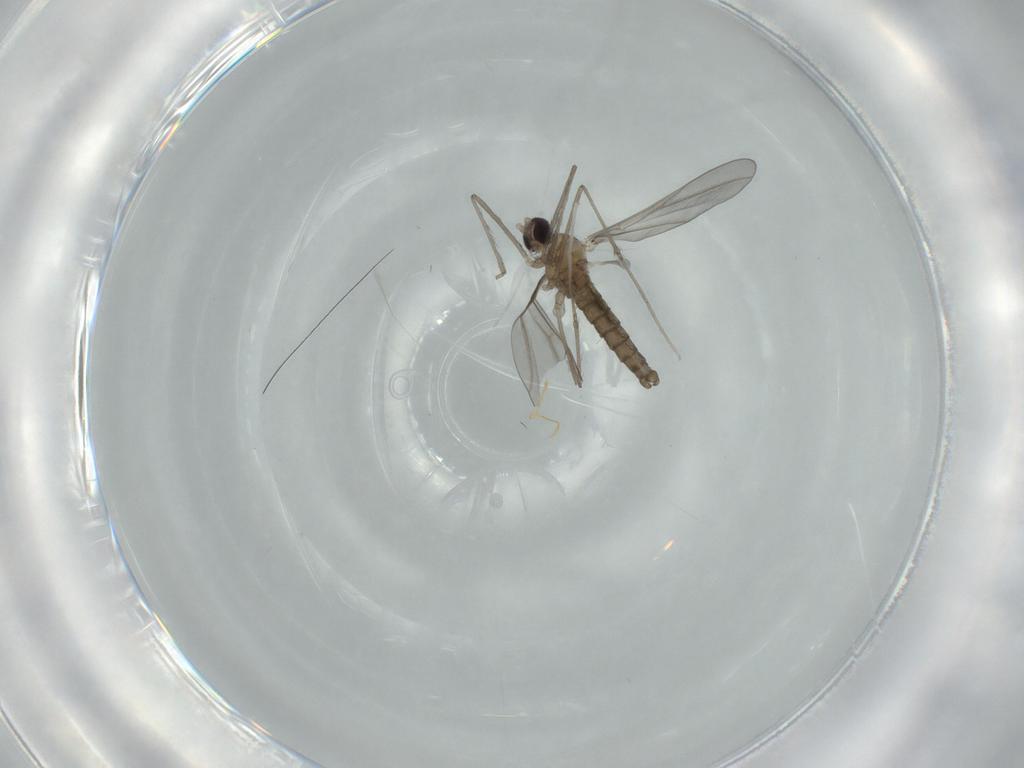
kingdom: Animalia
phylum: Arthropoda
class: Insecta
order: Diptera
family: Cecidomyiidae
